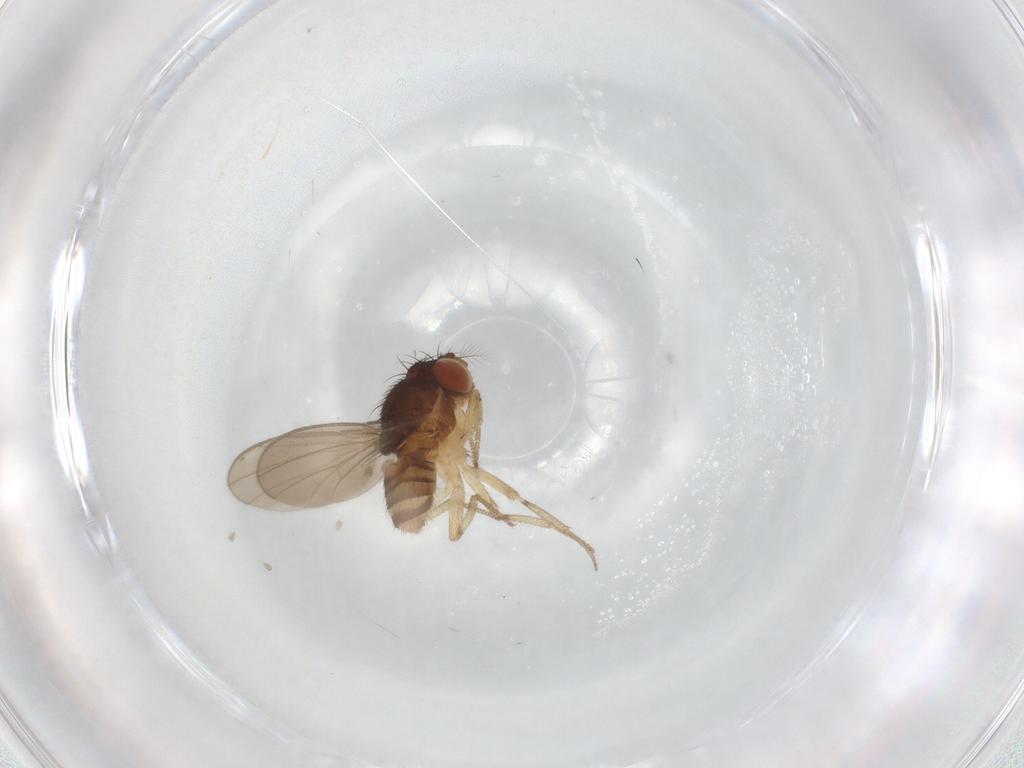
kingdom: Animalia
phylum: Arthropoda
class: Insecta
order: Diptera
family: Drosophilidae
